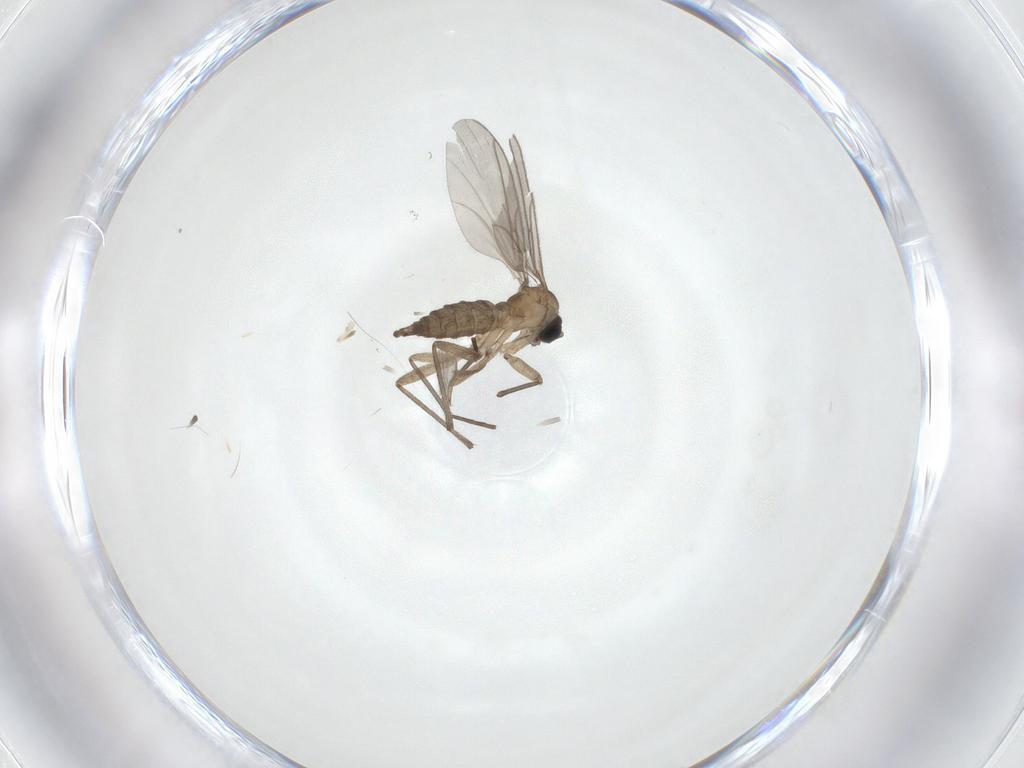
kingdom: Animalia
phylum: Arthropoda
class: Insecta
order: Diptera
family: Sciaridae
